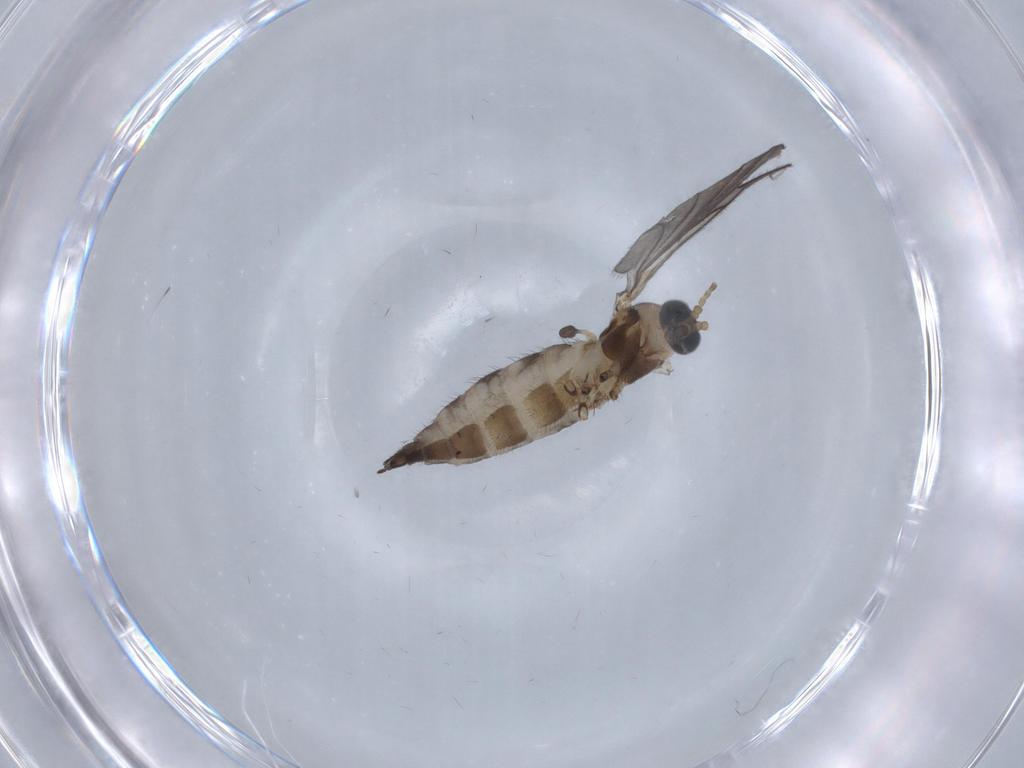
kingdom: Animalia
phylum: Arthropoda
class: Insecta
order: Diptera
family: Sciaridae
